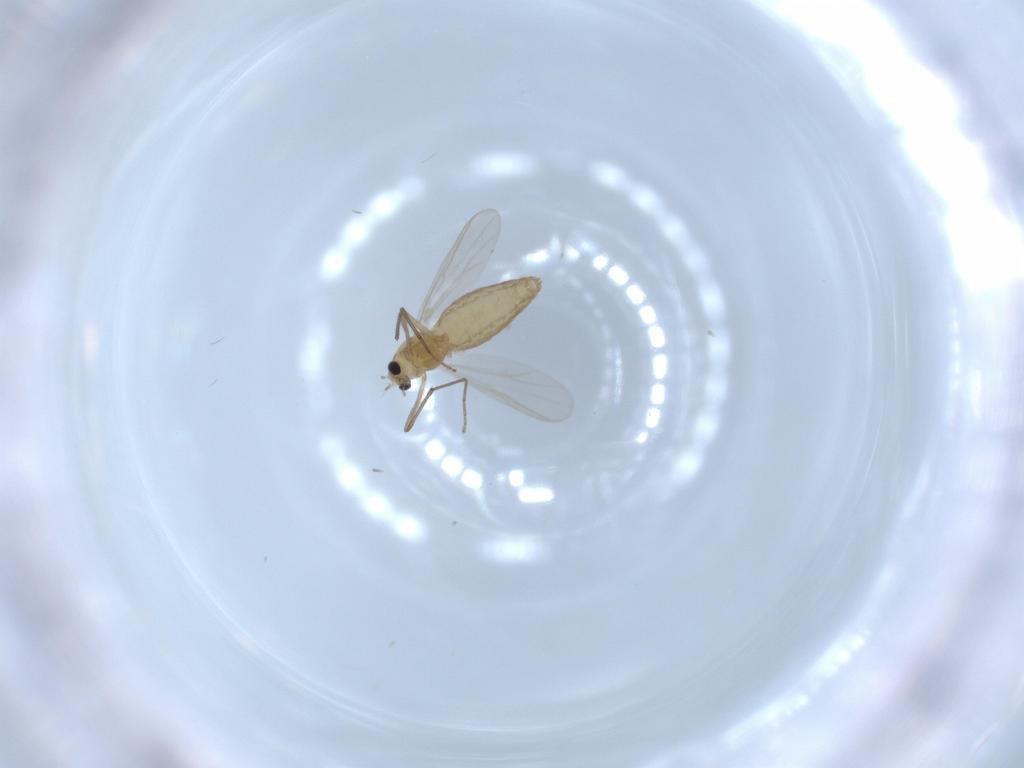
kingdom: Animalia
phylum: Arthropoda
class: Insecta
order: Diptera
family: Chironomidae
